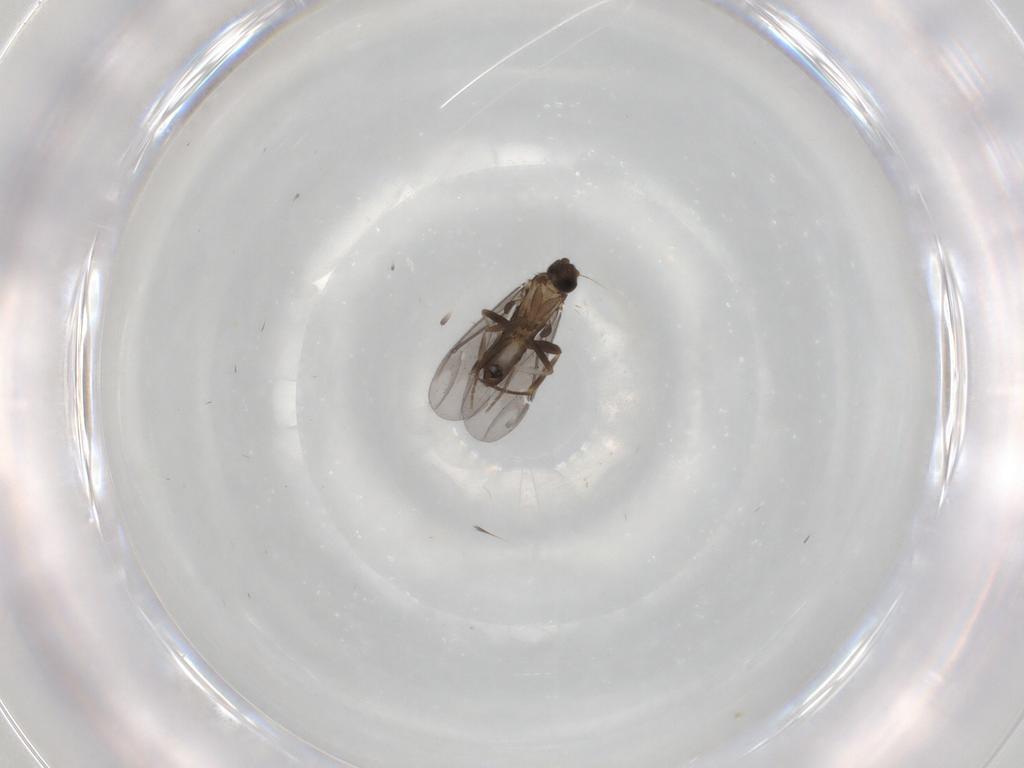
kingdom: Animalia
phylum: Arthropoda
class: Insecta
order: Diptera
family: Phoridae
